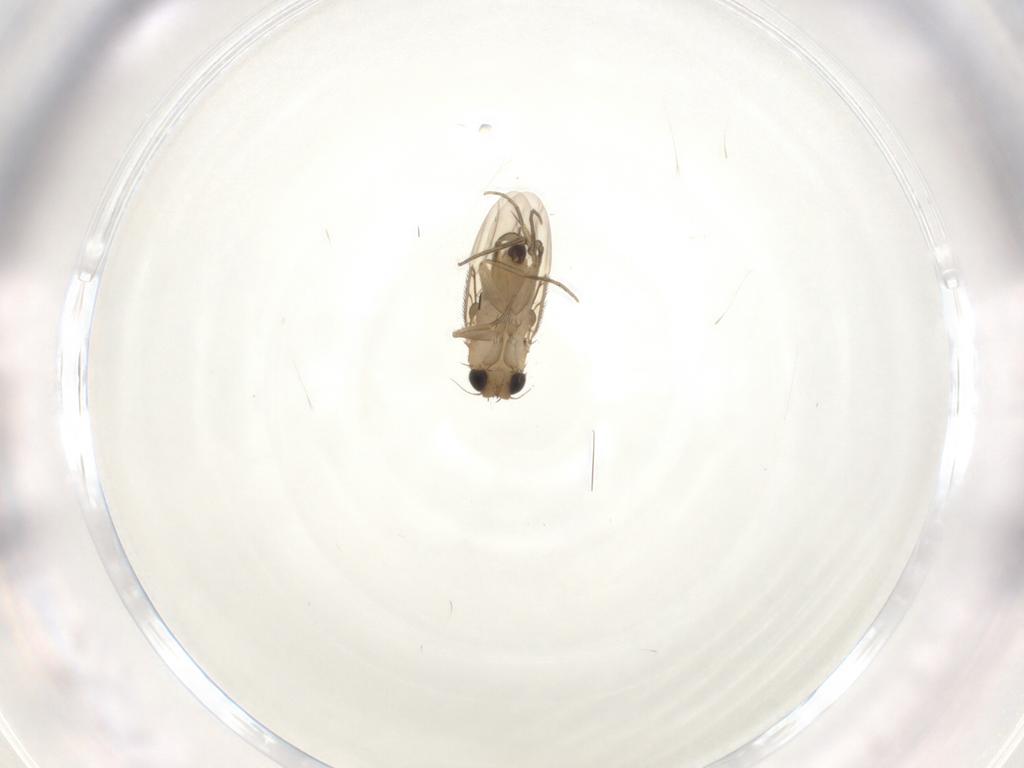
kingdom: Animalia
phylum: Arthropoda
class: Insecta
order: Diptera
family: Phoridae
